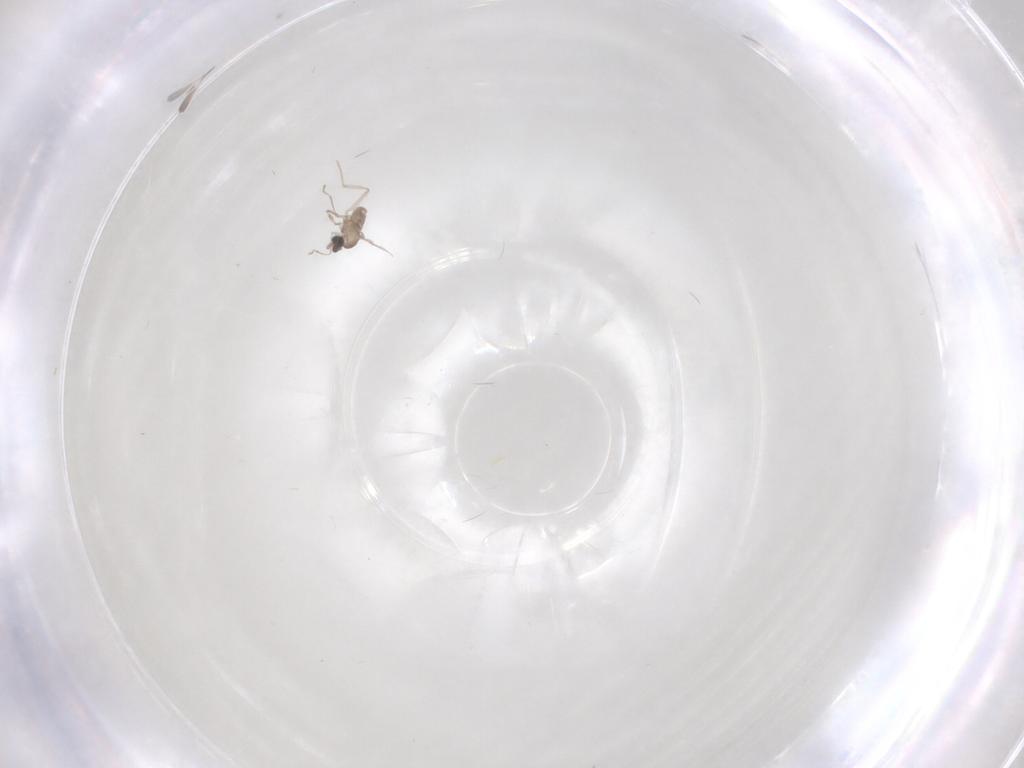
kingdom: Animalia
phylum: Arthropoda
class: Insecta
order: Diptera
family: Cecidomyiidae
